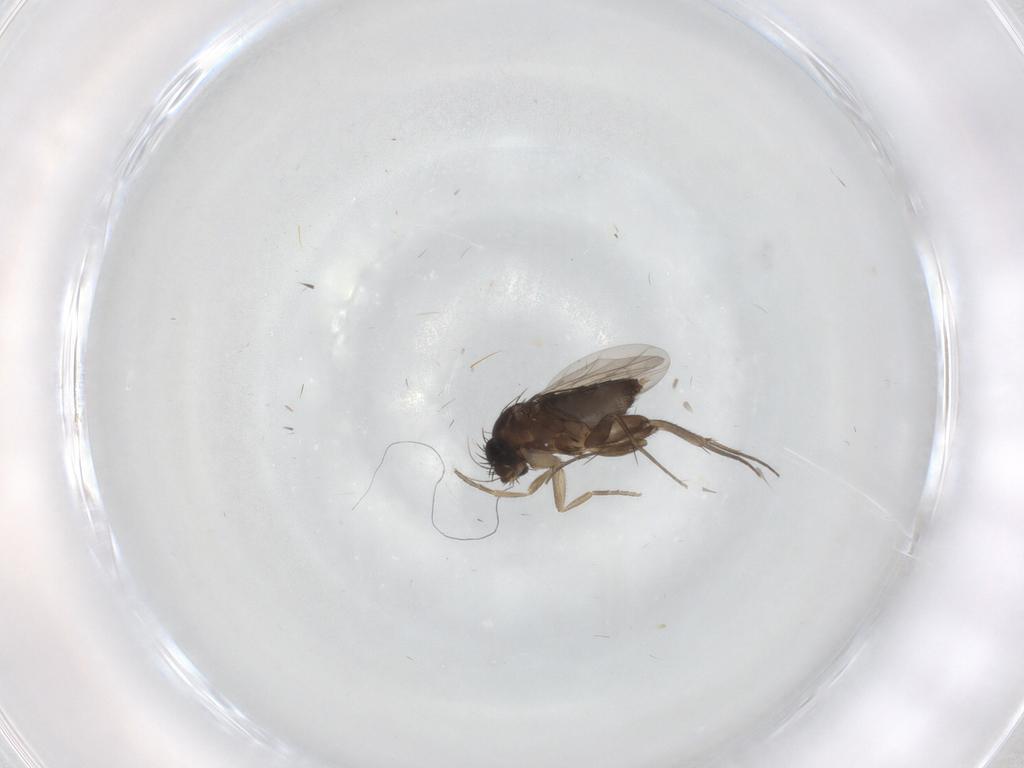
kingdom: Animalia
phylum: Arthropoda
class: Insecta
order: Diptera
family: Phoridae
